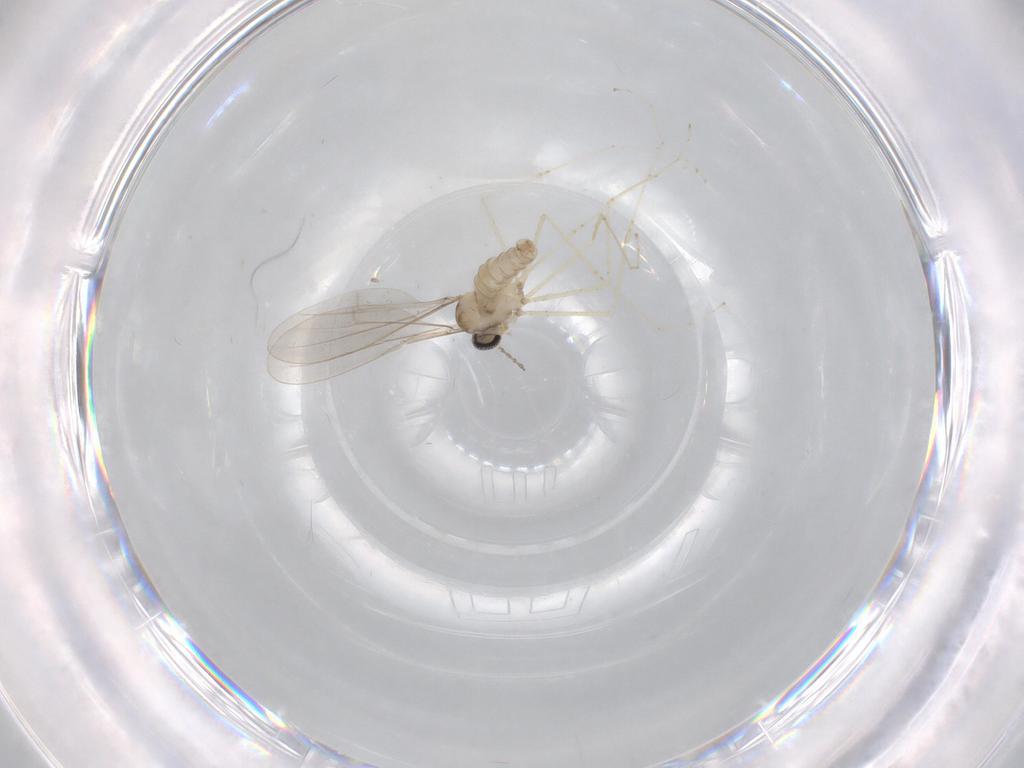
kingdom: Animalia
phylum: Arthropoda
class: Insecta
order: Diptera
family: Cecidomyiidae
